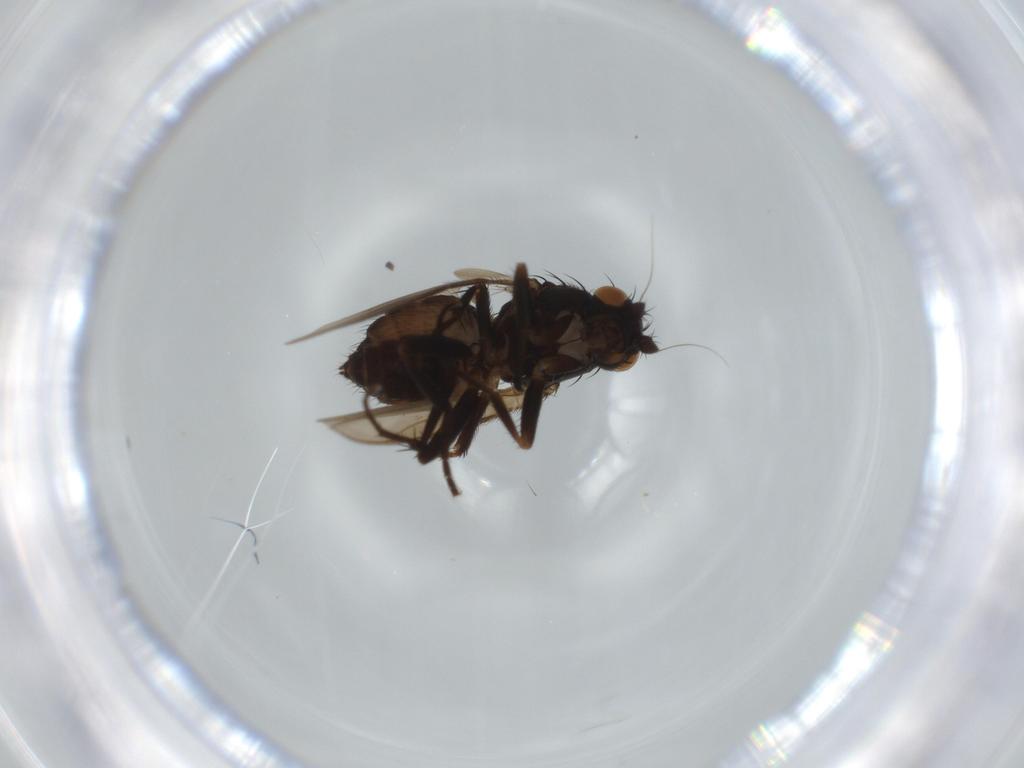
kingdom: Animalia
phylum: Arthropoda
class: Insecta
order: Diptera
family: Sphaeroceridae
